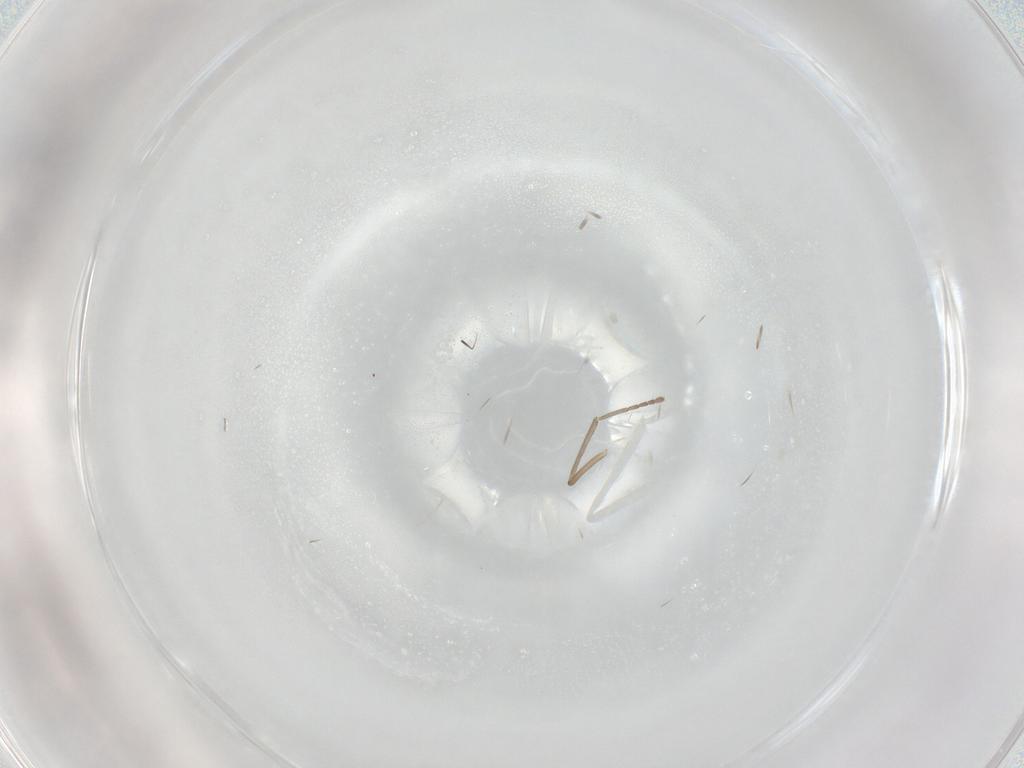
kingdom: Animalia
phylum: Arthropoda
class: Insecta
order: Diptera
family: Cecidomyiidae
